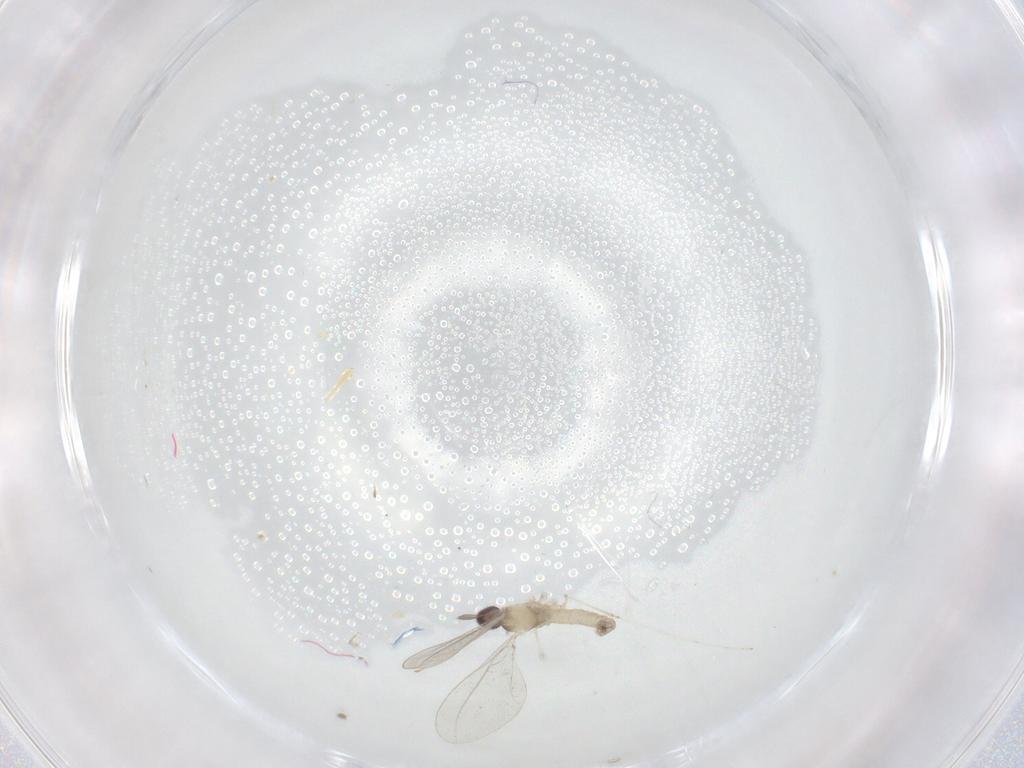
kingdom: Animalia
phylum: Arthropoda
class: Insecta
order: Diptera
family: Cecidomyiidae
